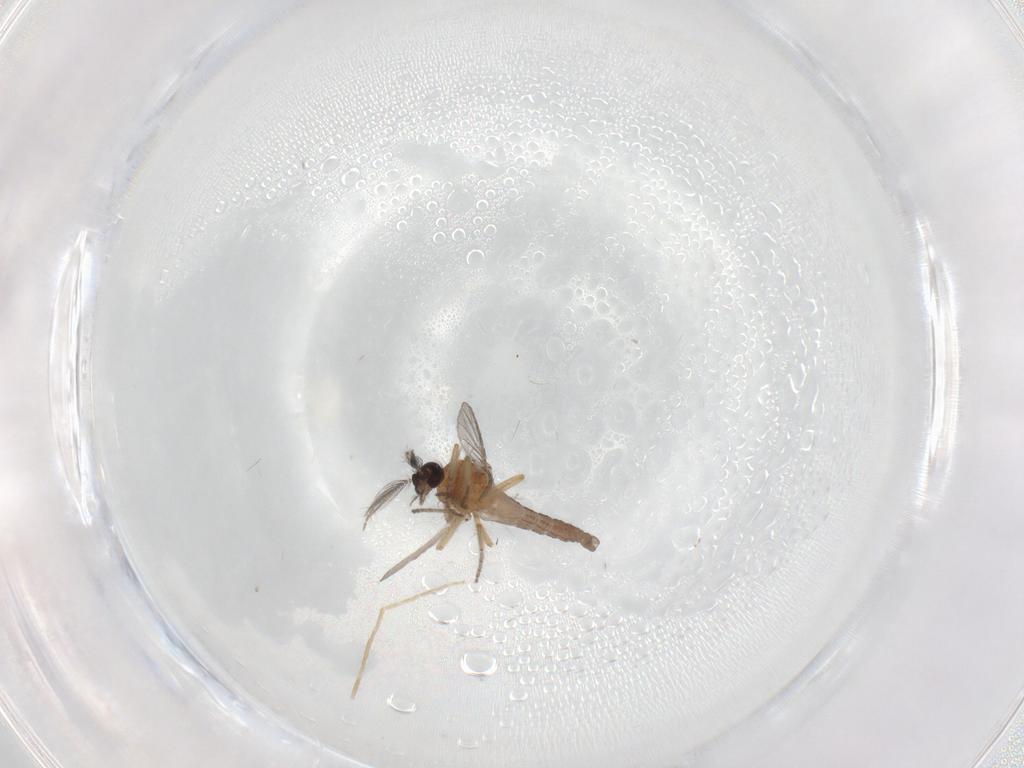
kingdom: Animalia
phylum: Arthropoda
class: Insecta
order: Diptera
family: Ceratopogonidae
